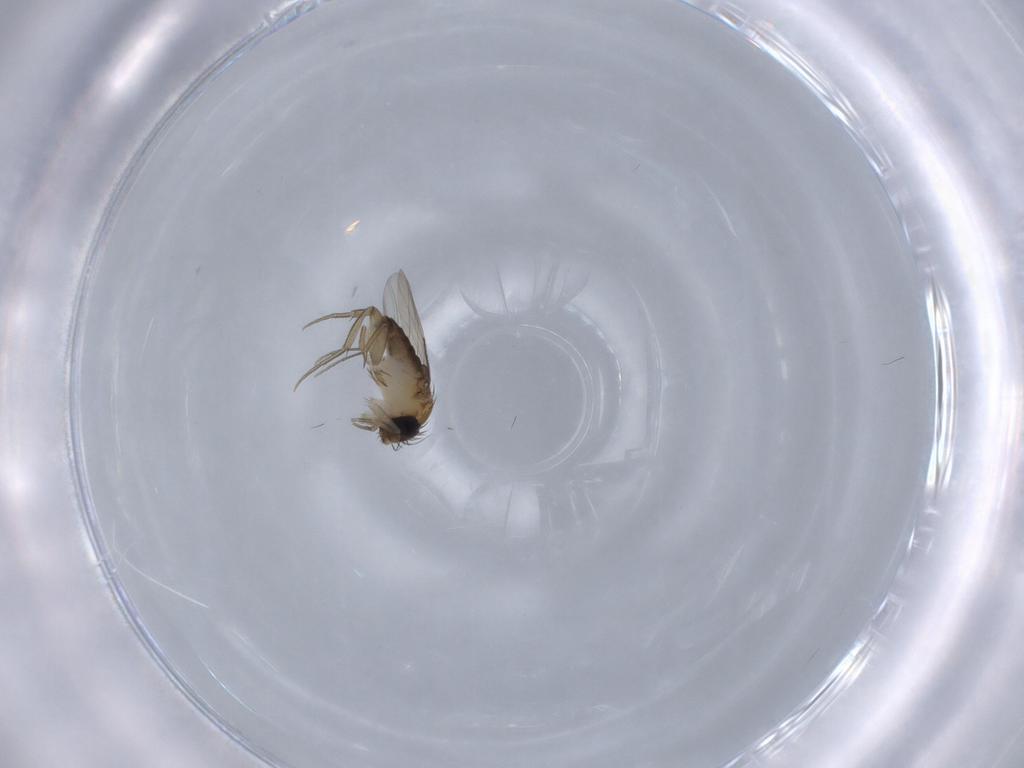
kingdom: Animalia
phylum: Arthropoda
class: Insecta
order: Diptera
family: Phoridae
